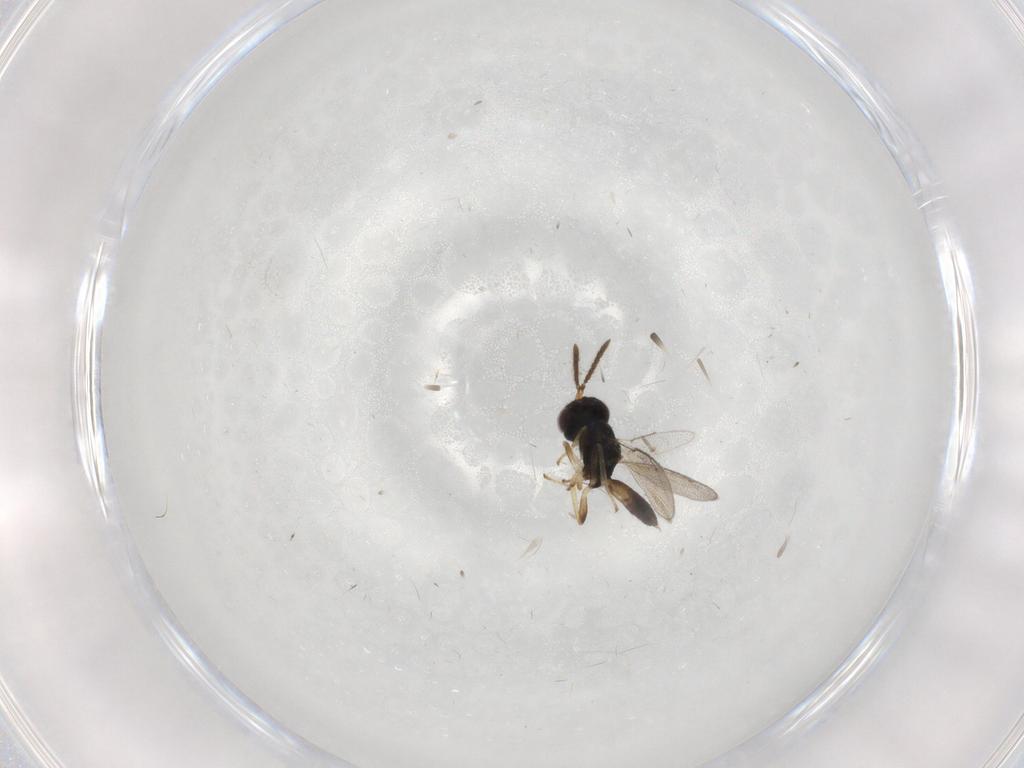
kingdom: Animalia
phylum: Arthropoda
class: Insecta
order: Hymenoptera
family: Pteromalidae
